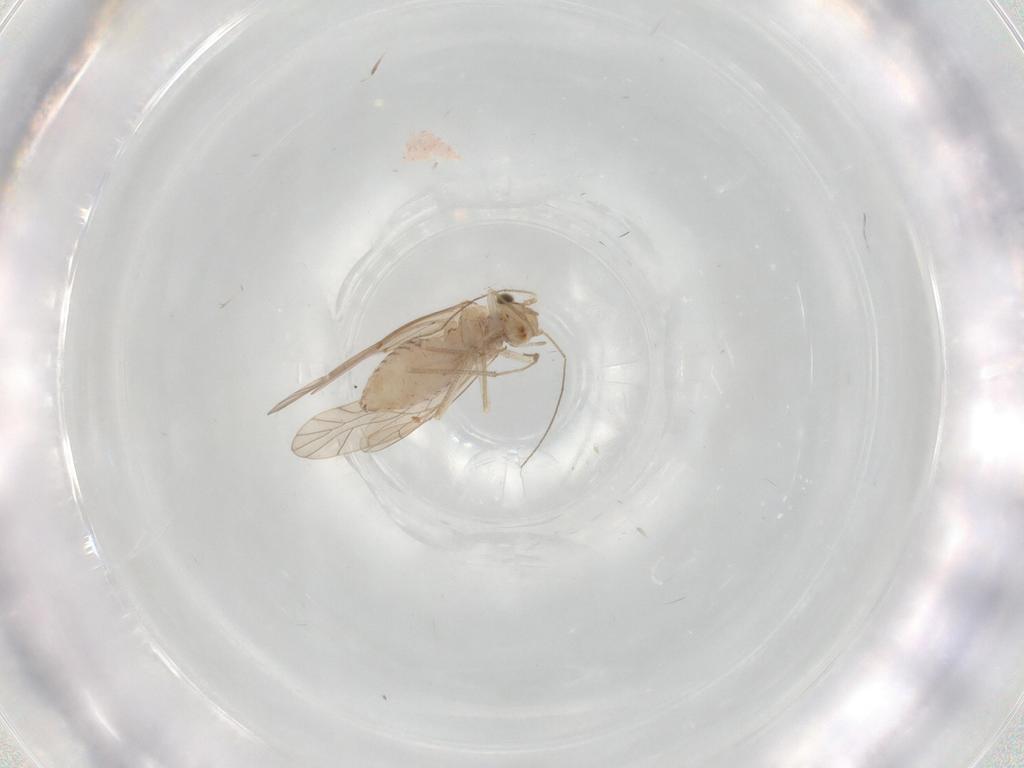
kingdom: Animalia
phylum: Arthropoda
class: Insecta
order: Psocodea
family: Lachesillidae
